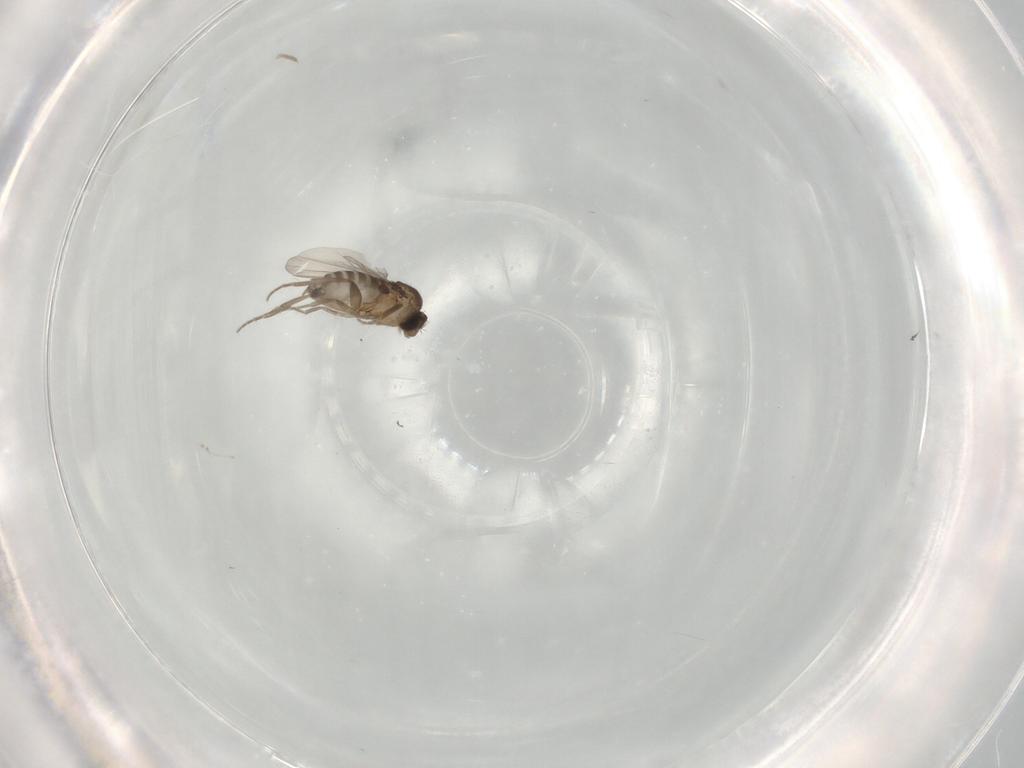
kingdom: Animalia
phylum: Arthropoda
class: Insecta
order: Diptera
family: Phoridae
